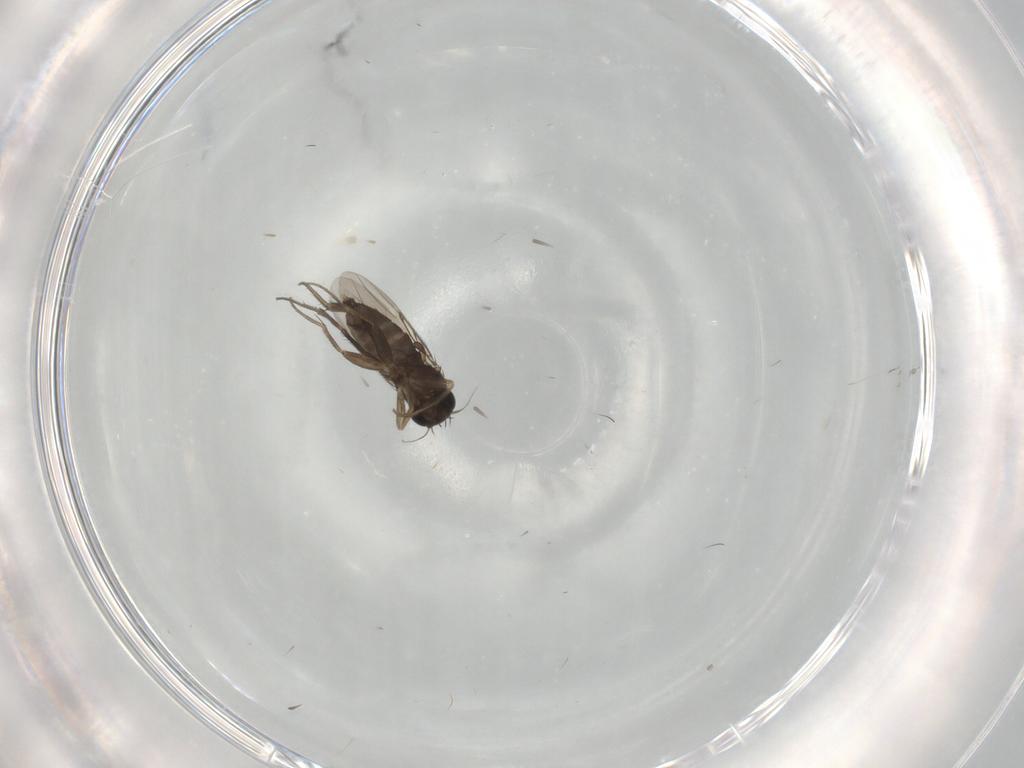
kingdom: Animalia
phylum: Arthropoda
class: Insecta
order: Diptera
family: Phoridae
